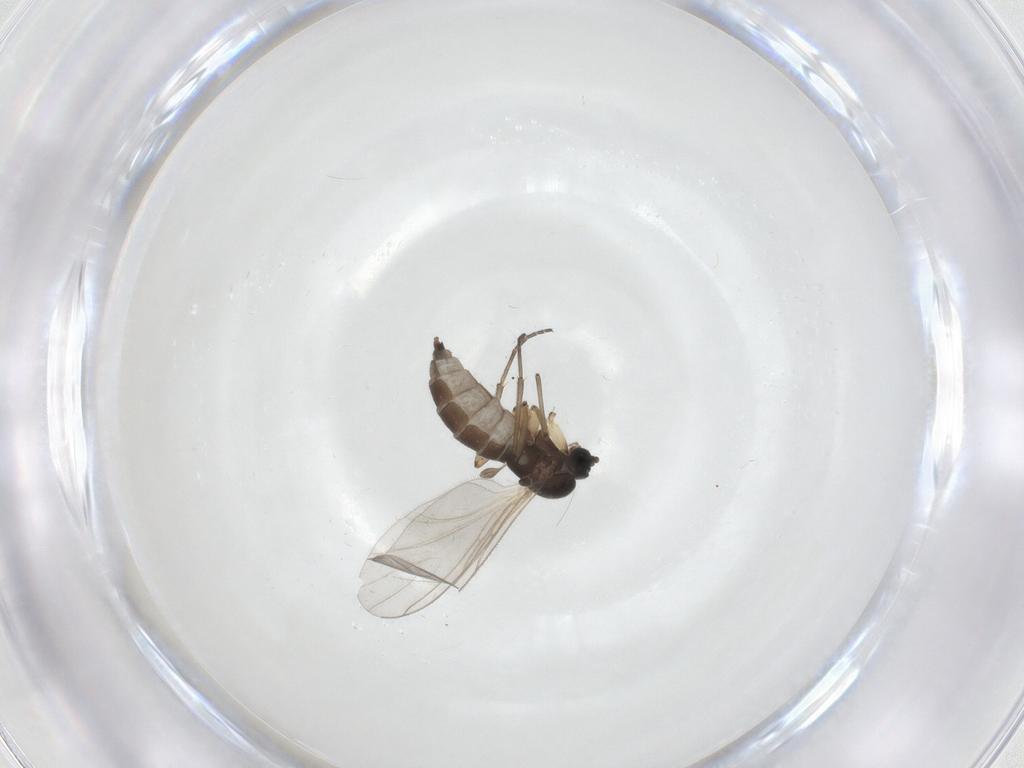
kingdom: Animalia
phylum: Arthropoda
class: Insecta
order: Diptera
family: Sciaridae
